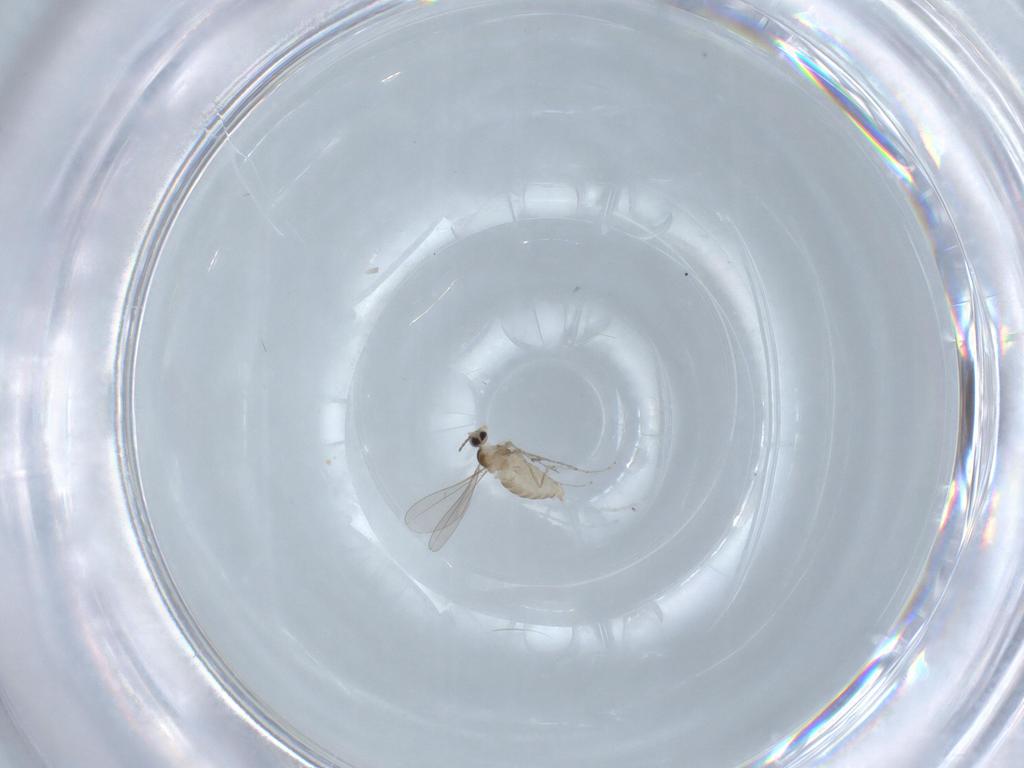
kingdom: Animalia
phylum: Arthropoda
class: Insecta
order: Diptera
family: Cecidomyiidae
